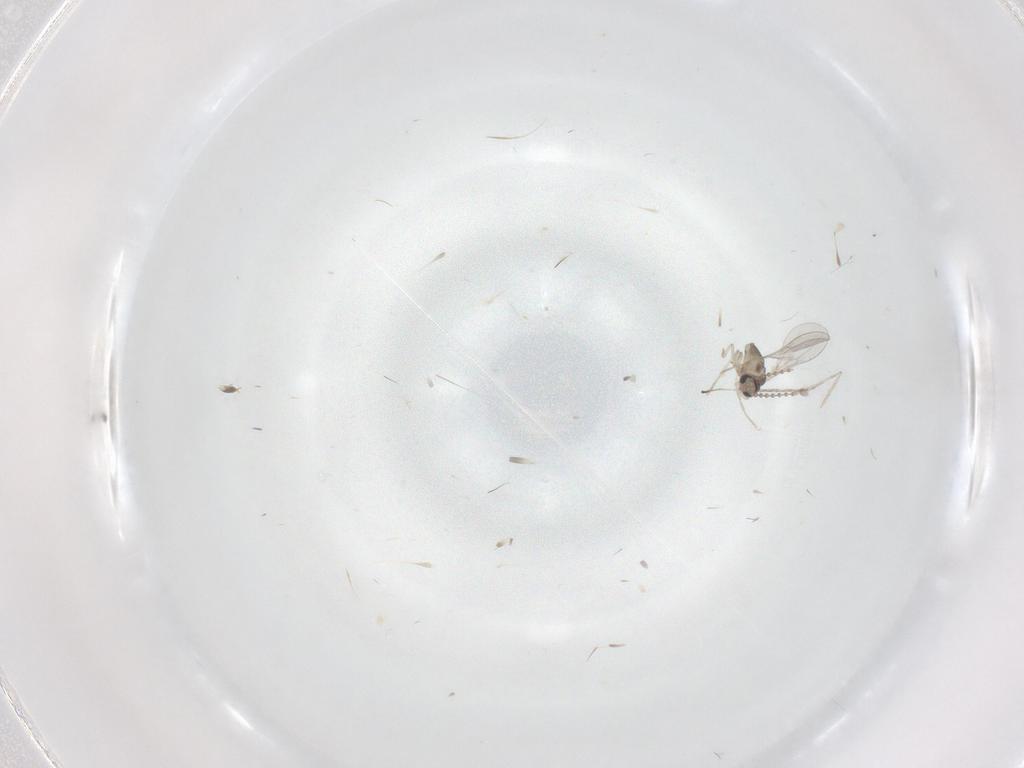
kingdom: Animalia
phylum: Arthropoda
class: Insecta
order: Diptera
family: Cecidomyiidae
